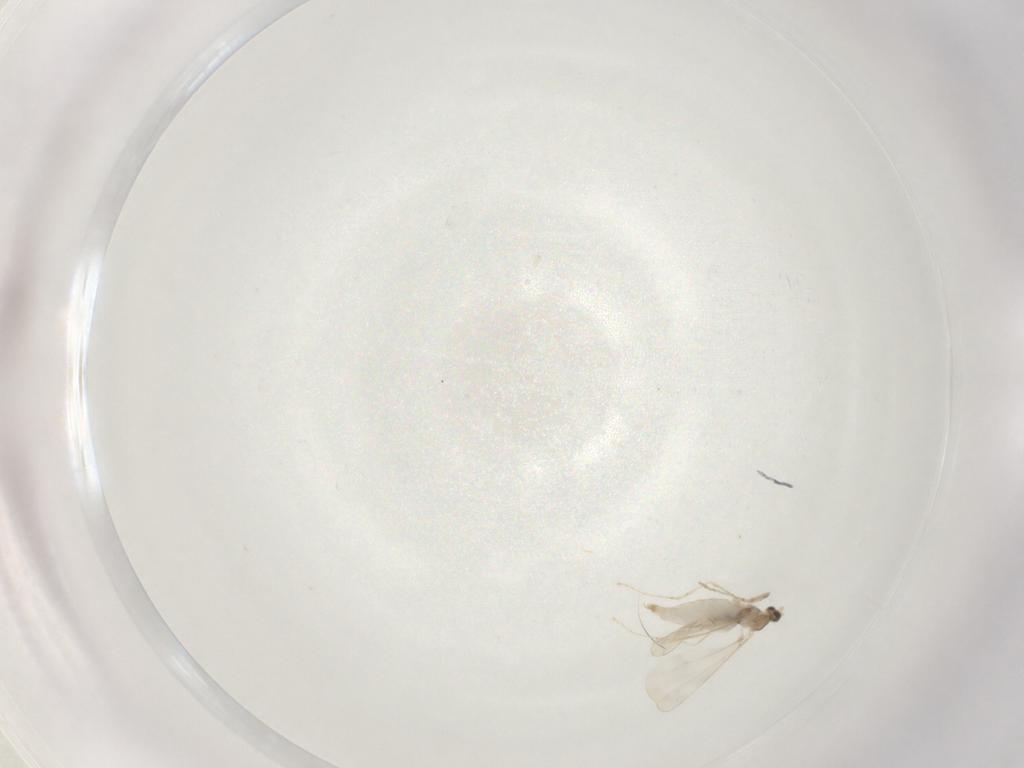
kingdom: Animalia
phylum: Arthropoda
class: Insecta
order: Diptera
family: Cecidomyiidae
